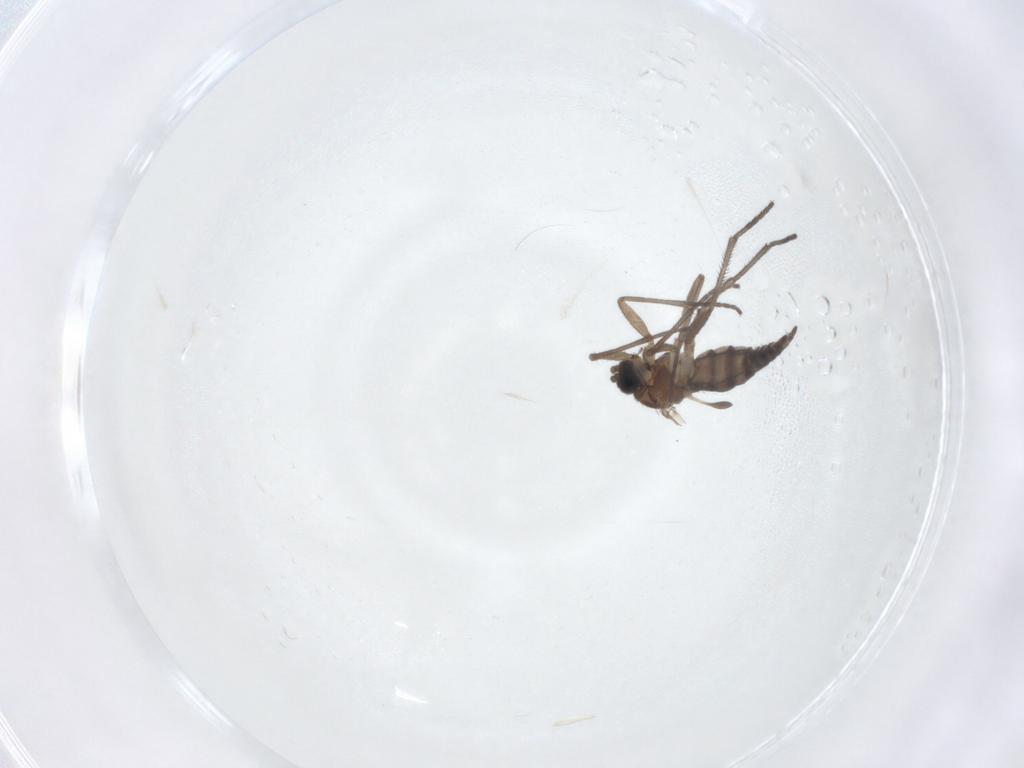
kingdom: Animalia
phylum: Arthropoda
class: Insecta
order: Diptera
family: Sciaridae
